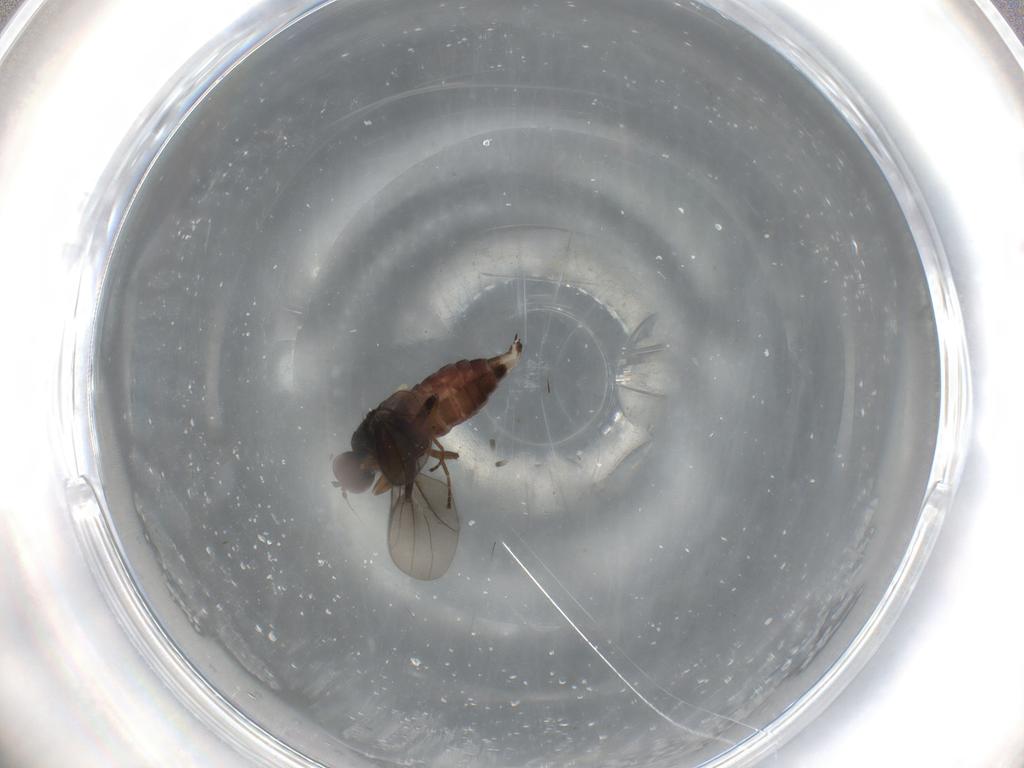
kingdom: Animalia
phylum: Arthropoda
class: Insecta
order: Diptera
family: Hybotidae
